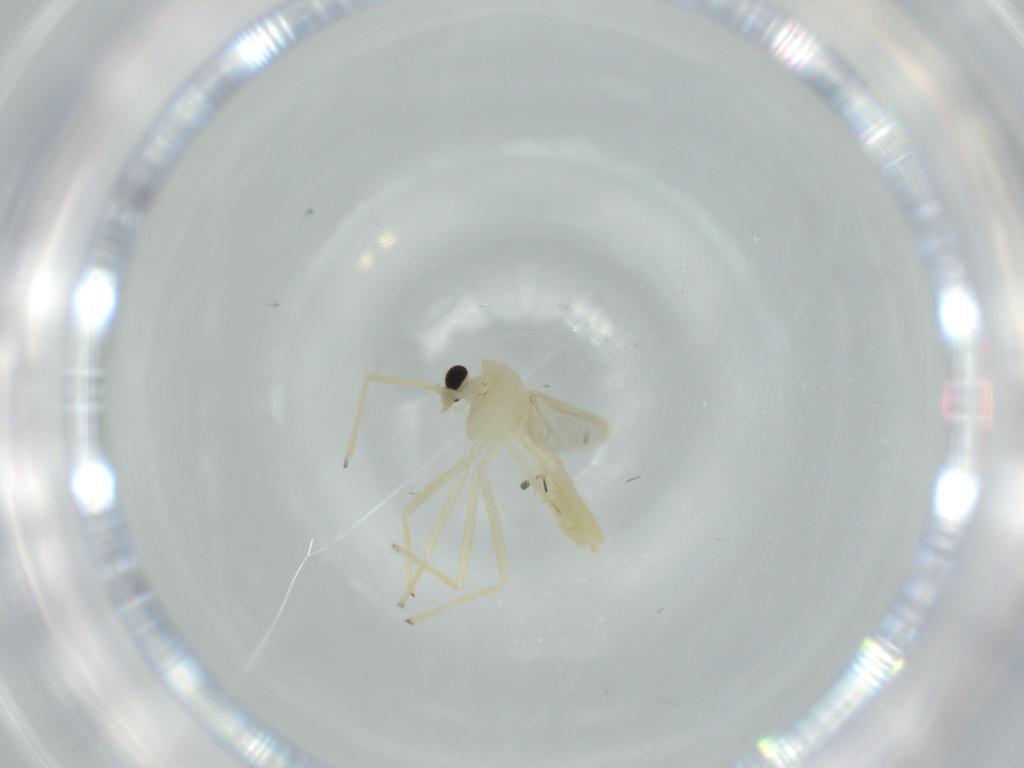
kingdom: Animalia
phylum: Arthropoda
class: Insecta
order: Diptera
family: Chironomidae
